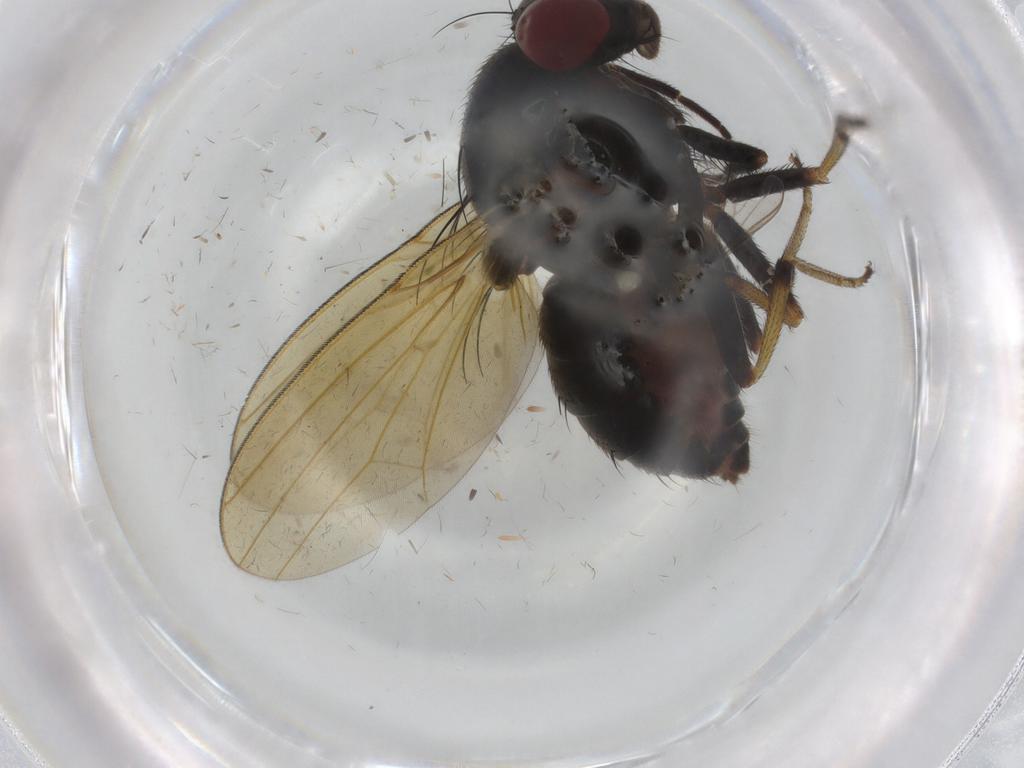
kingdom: Animalia
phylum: Arthropoda
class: Insecta
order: Diptera
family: Chironomidae
